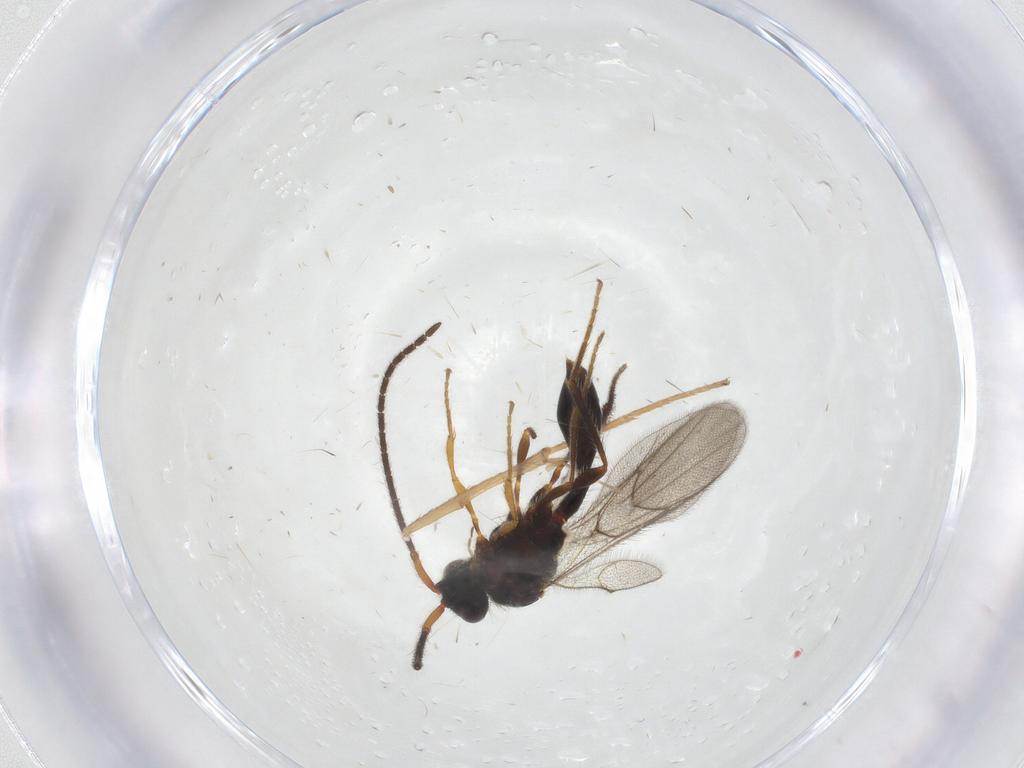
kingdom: Animalia
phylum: Arthropoda
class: Insecta
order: Hymenoptera
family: Diapriidae
